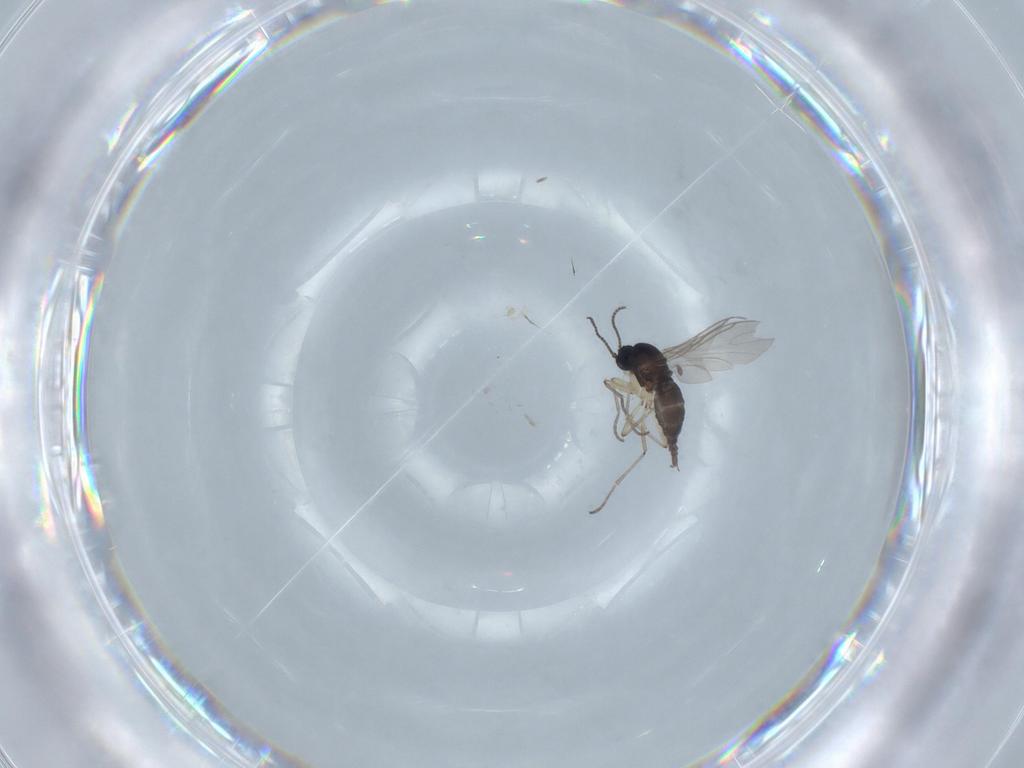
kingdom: Animalia
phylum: Arthropoda
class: Insecta
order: Diptera
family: Sciaridae
